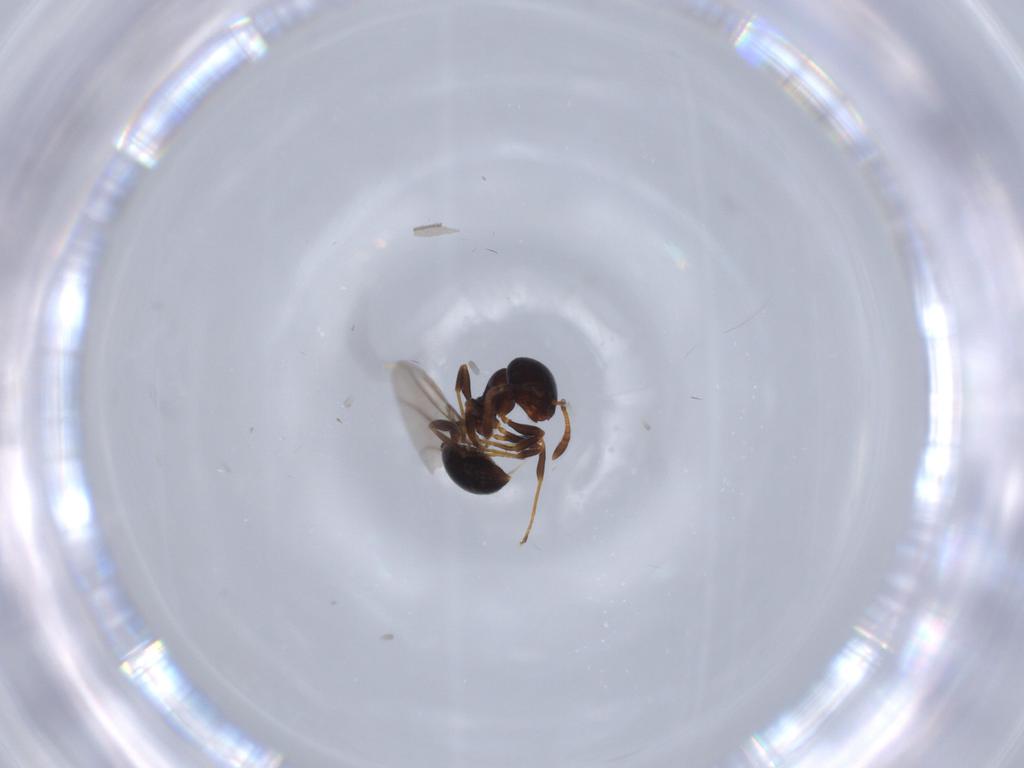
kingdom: Animalia
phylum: Arthropoda
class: Insecta
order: Hymenoptera
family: Formicidae
